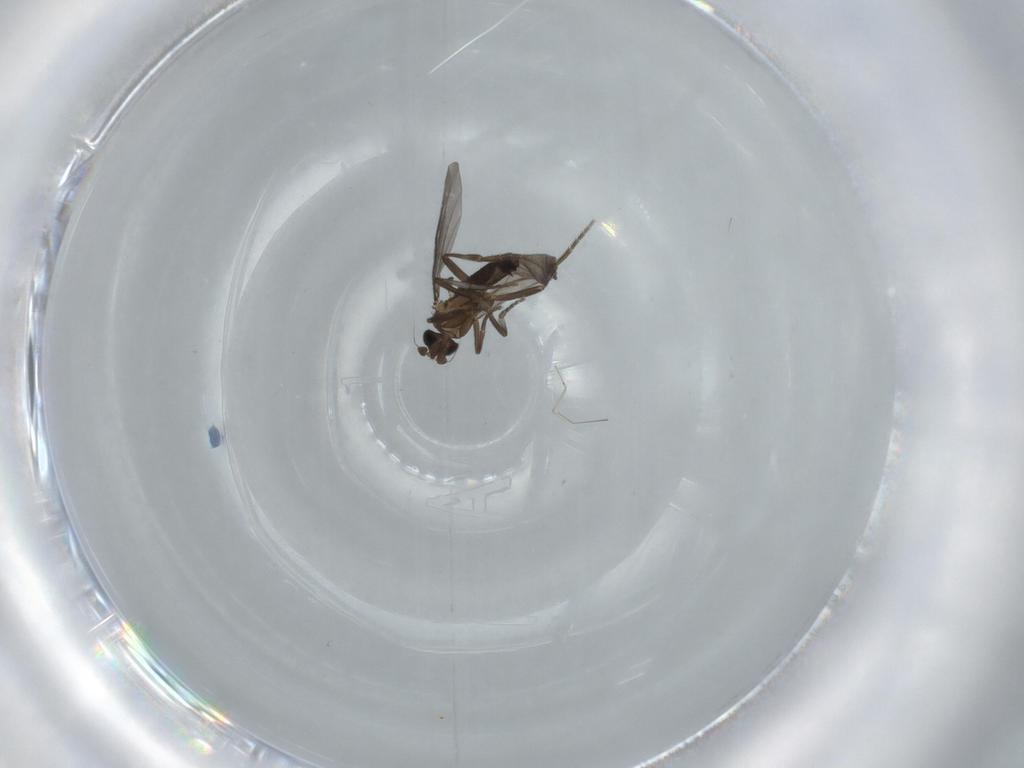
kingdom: Animalia
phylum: Arthropoda
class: Insecta
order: Diptera
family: Phoridae
